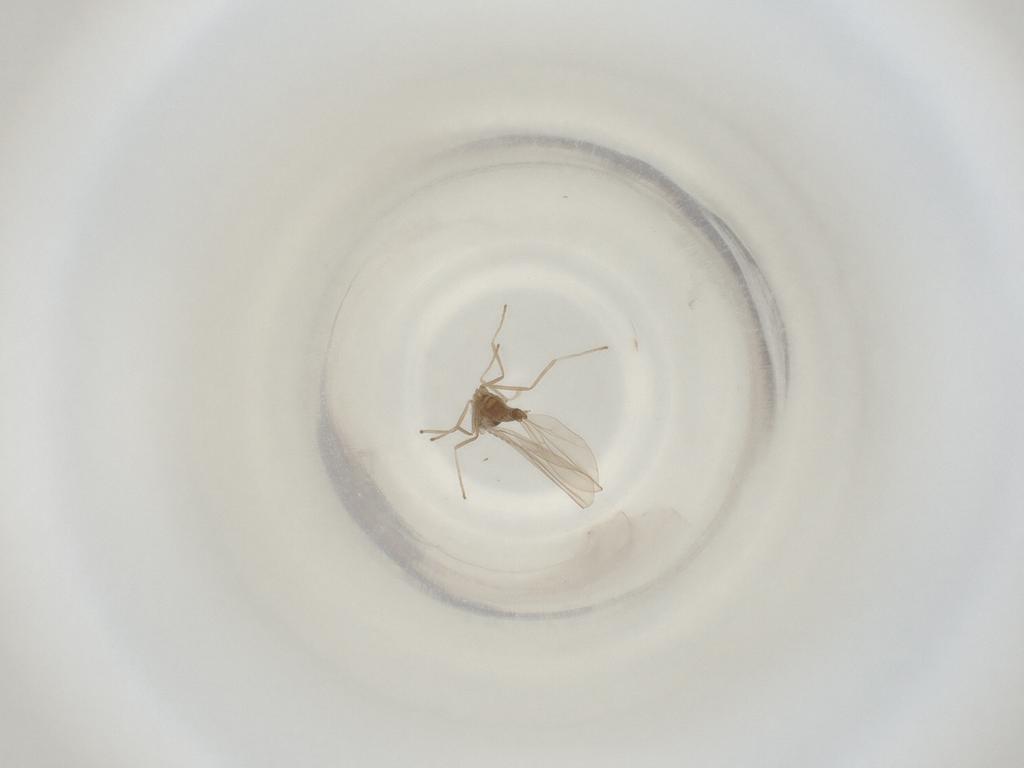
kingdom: Animalia
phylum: Arthropoda
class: Insecta
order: Diptera
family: Cecidomyiidae
